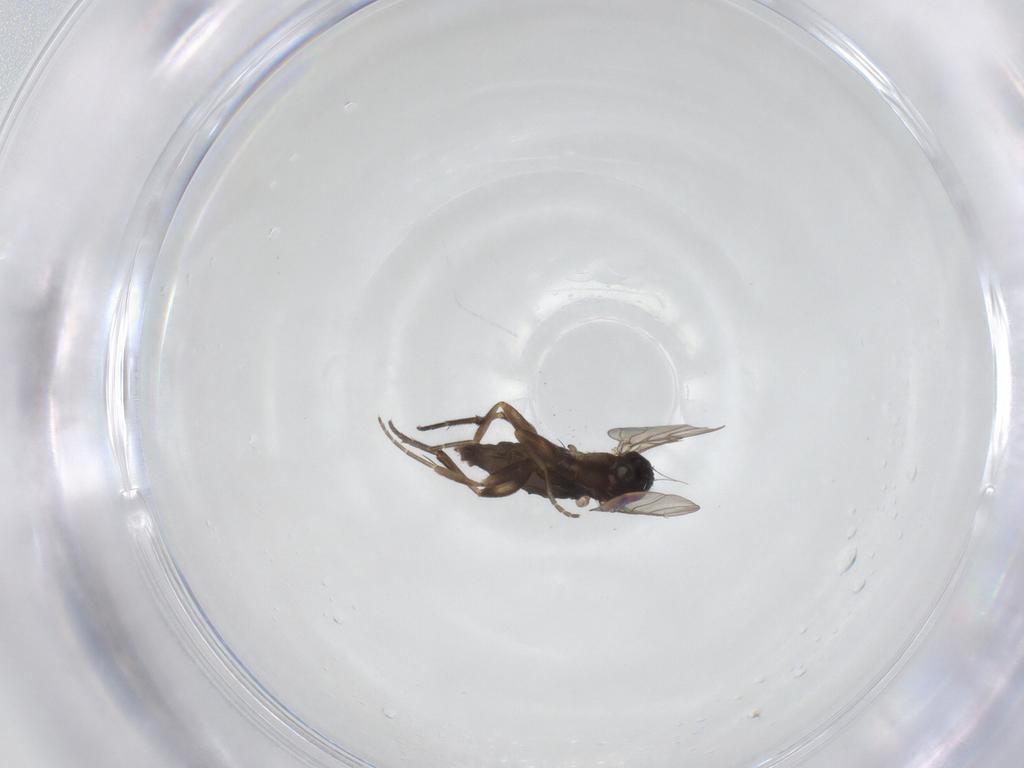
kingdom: Animalia
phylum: Arthropoda
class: Insecta
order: Diptera
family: Phoridae
